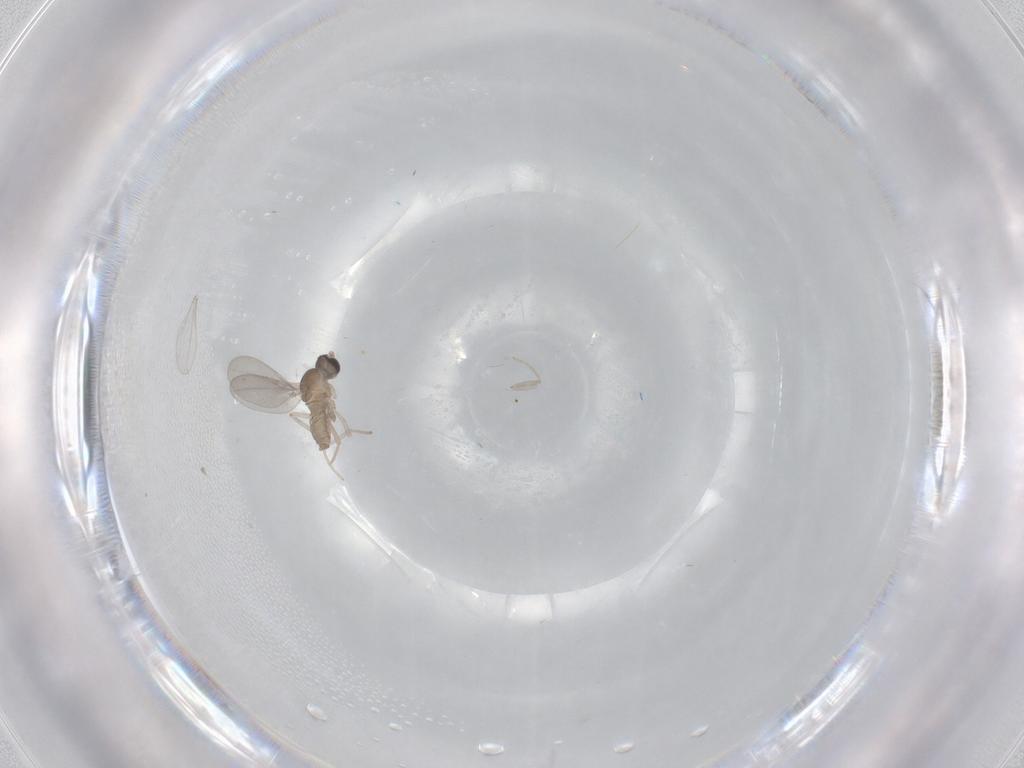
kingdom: Animalia
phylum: Arthropoda
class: Insecta
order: Diptera
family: Cecidomyiidae
